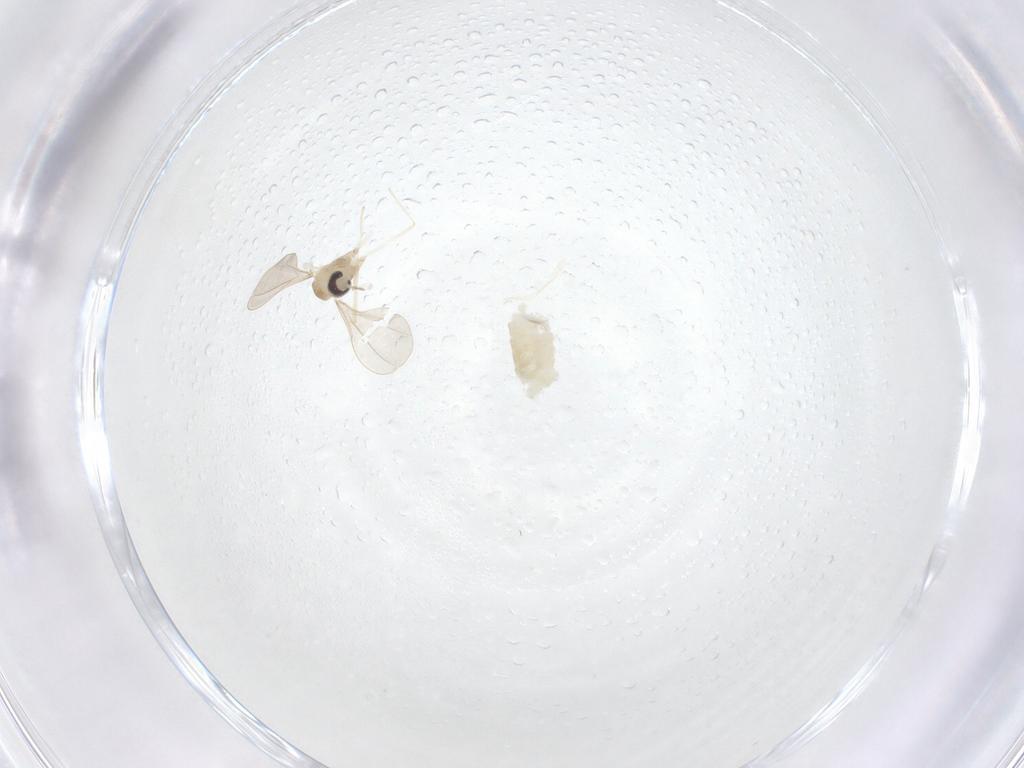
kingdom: Animalia
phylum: Arthropoda
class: Insecta
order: Diptera
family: Cecidomyiidae
